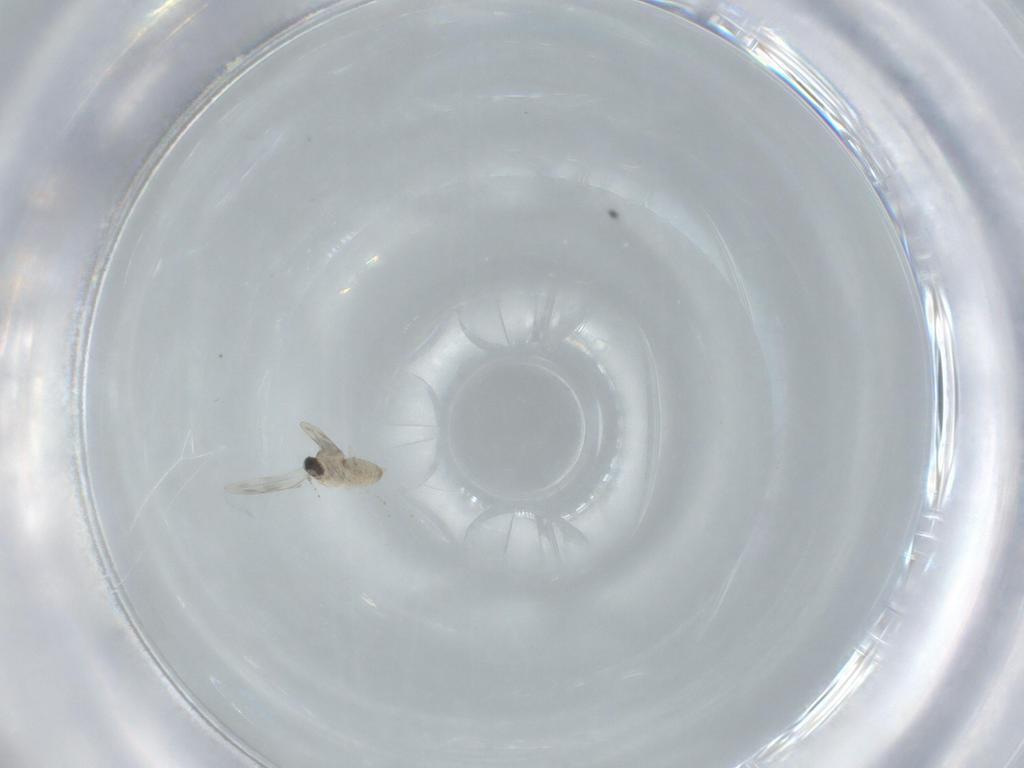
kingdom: Animalia
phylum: Arthropoda
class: Insecta
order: Diptera
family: Cecidomyiidae
